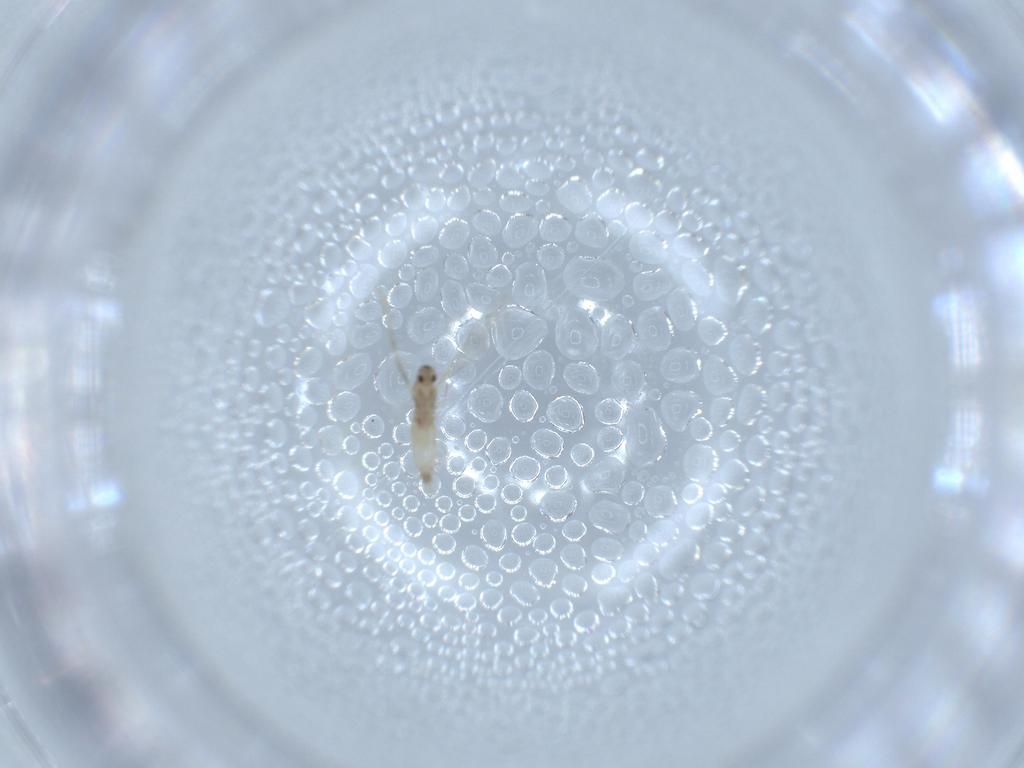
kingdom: Animalia
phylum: Arthropoda
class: Insecta
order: Diptera
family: Cecidomyiidae
